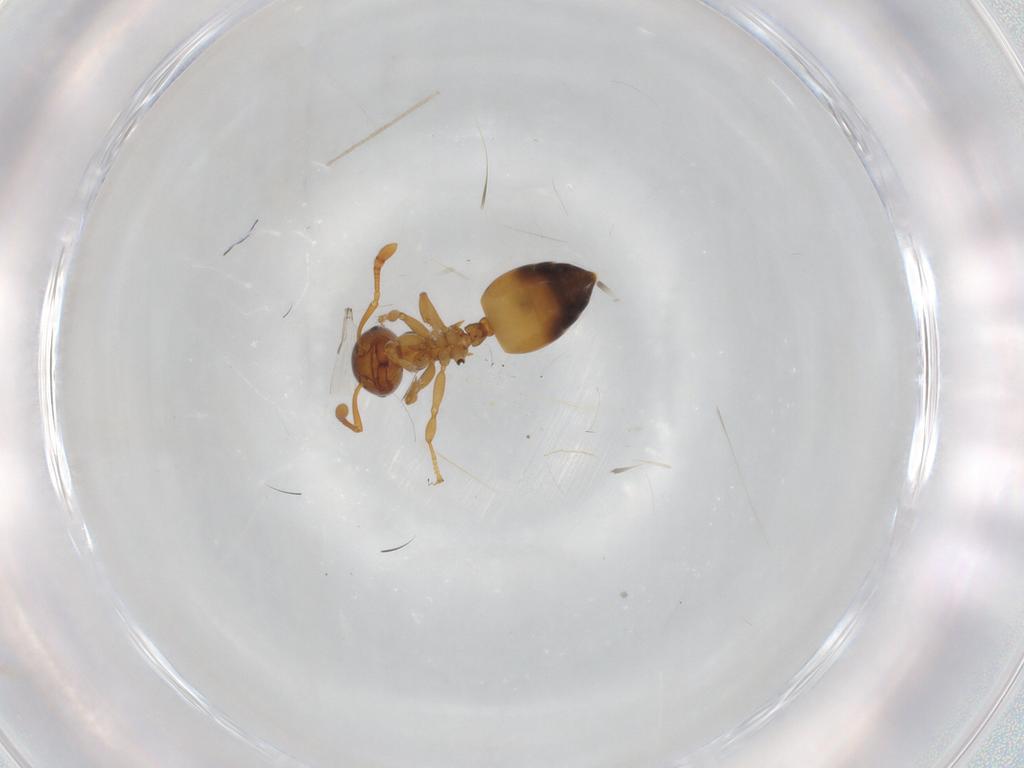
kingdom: Animalia
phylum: Arthropoda
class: Insecta
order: Hymenoptera
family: Formicidae
